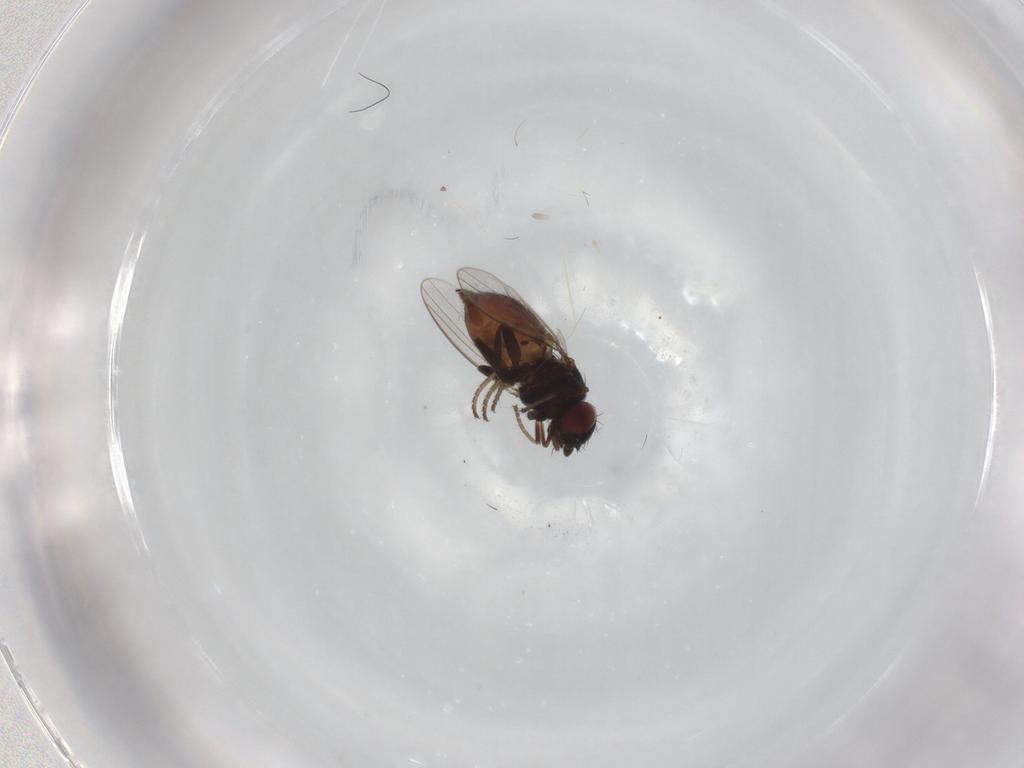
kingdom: Animalia
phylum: Arthropoda
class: Insecta
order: Diptera
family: Milichiidae
